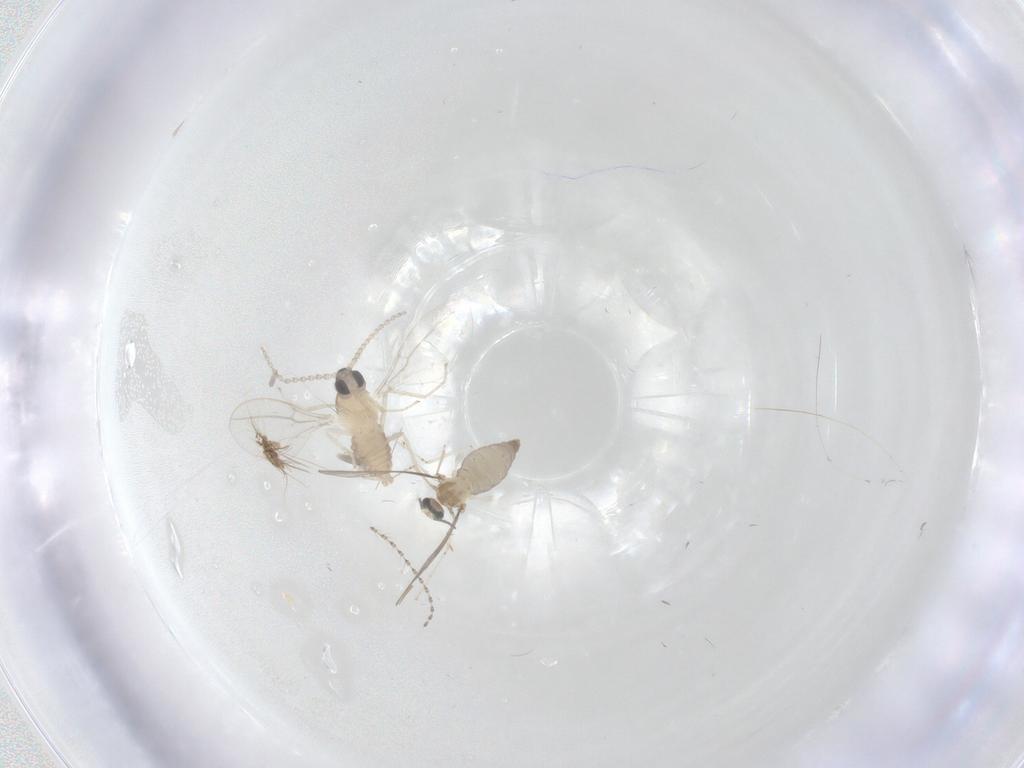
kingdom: Animalia
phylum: Arthropoda
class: Insecta
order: Diptera
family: Cecidomyiidae
